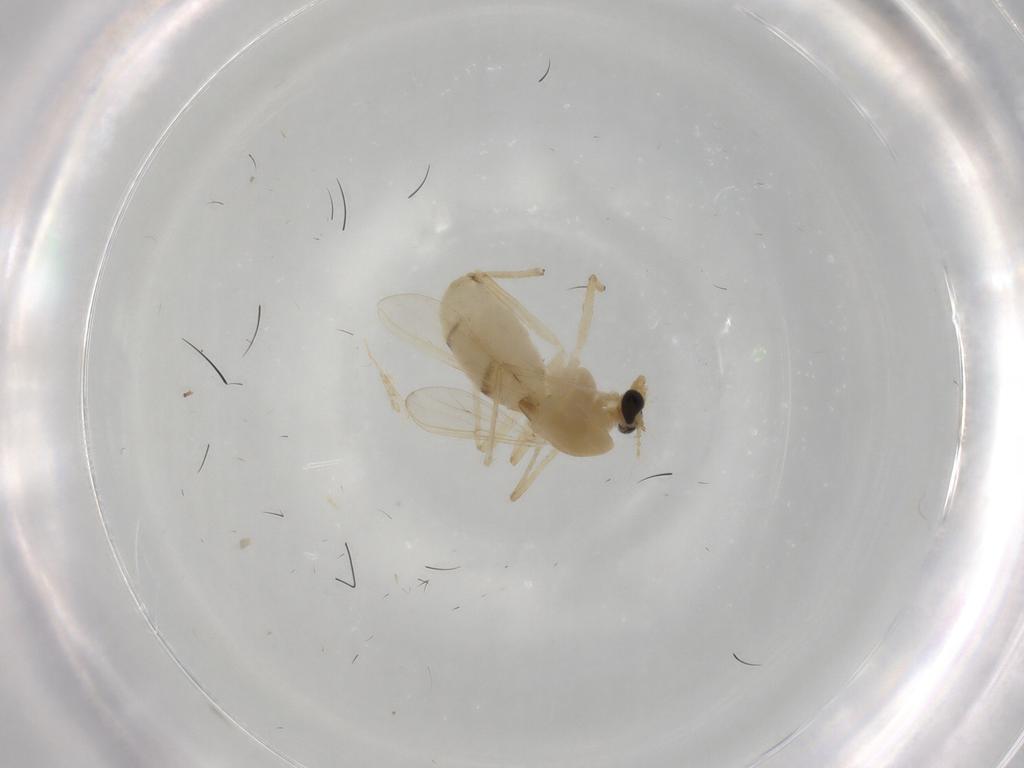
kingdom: Animalia
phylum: Arthropoda
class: Insecta
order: Diptera
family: Chironomidae
